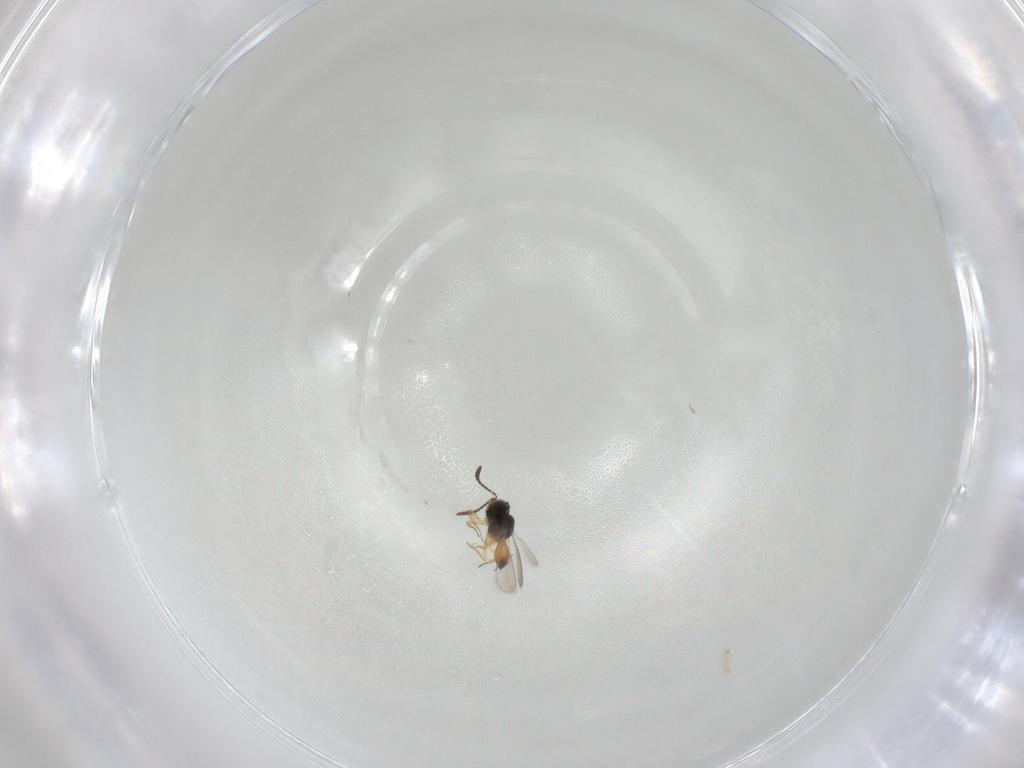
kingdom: Animalia
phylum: Arthropoda
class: Insecta
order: Hymenoptera
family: Scelionidae
